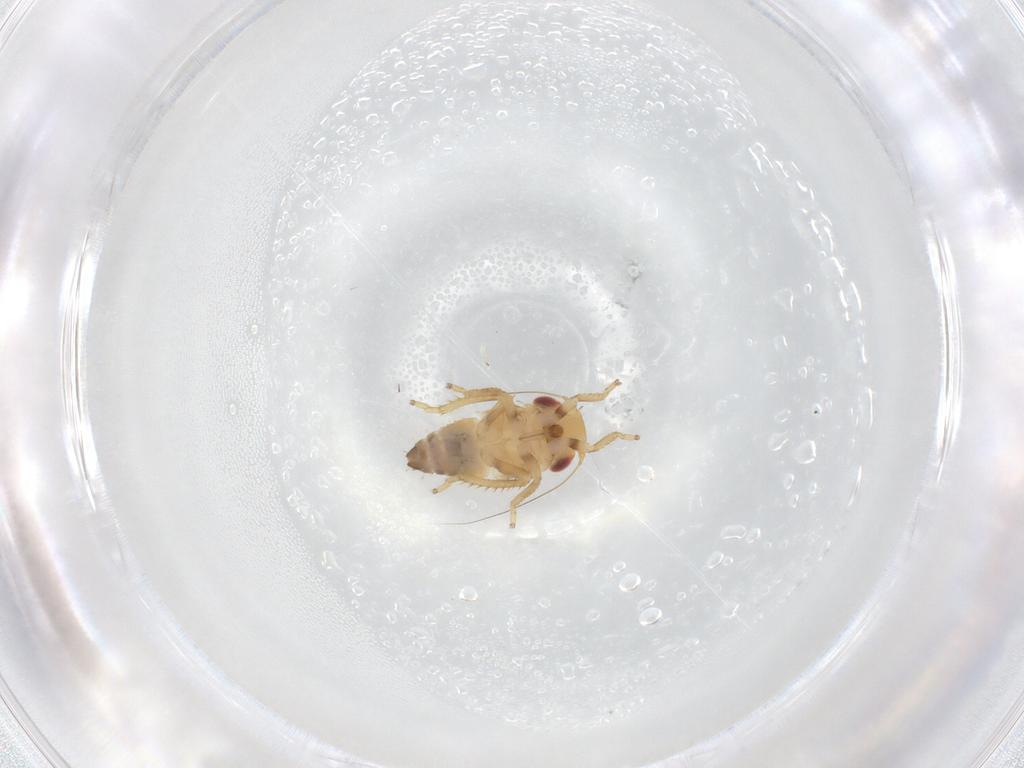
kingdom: Animalia
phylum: Arthropoda
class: Insecta
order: Hemiptera
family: Cicadellidae
